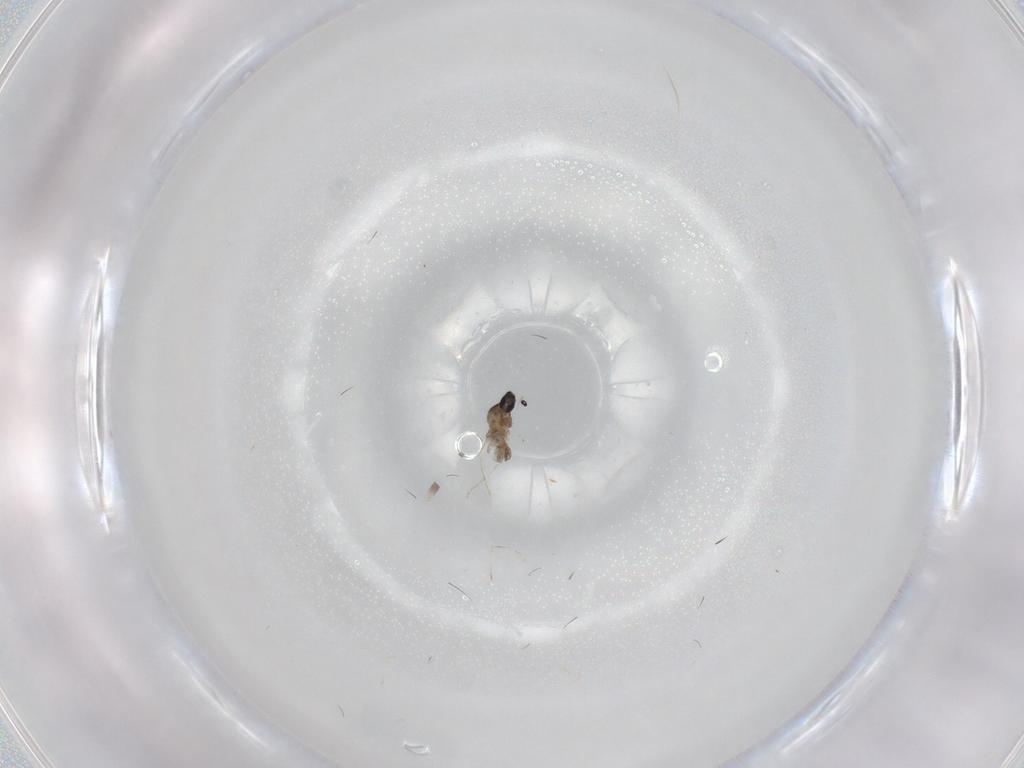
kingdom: Animalia
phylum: Arthropoda
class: Insecta
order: Diptera
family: Cecidomyiidae
